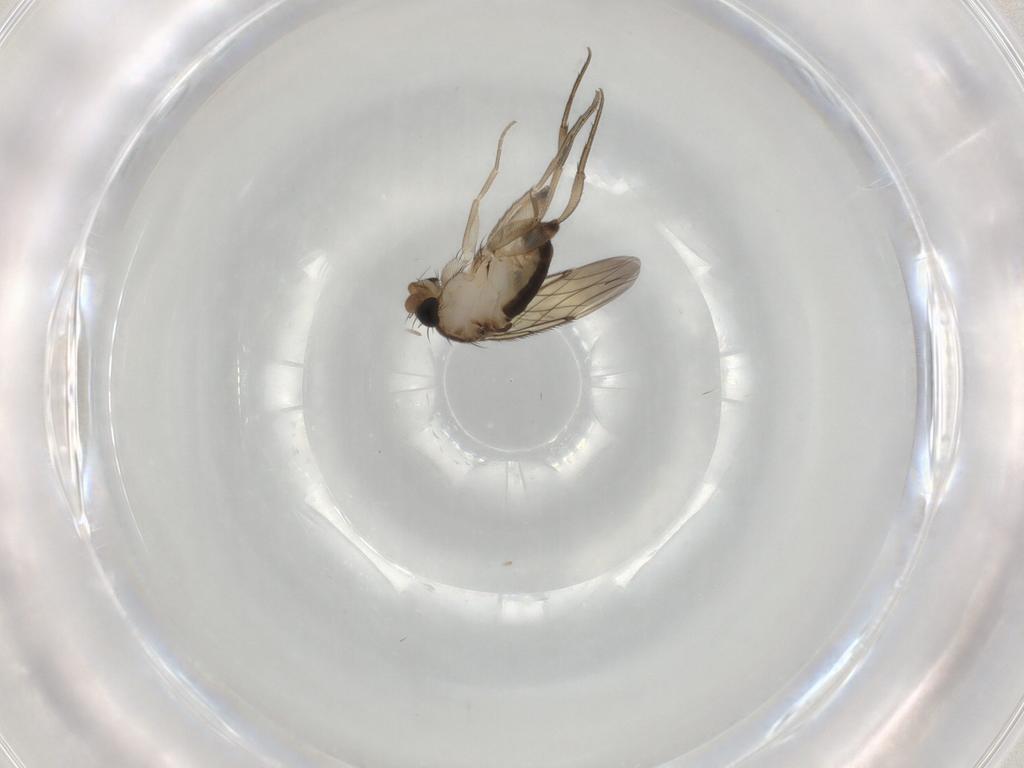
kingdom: Animalia
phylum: Arthropoda
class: Insecta
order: Diptera
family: Phoridae
